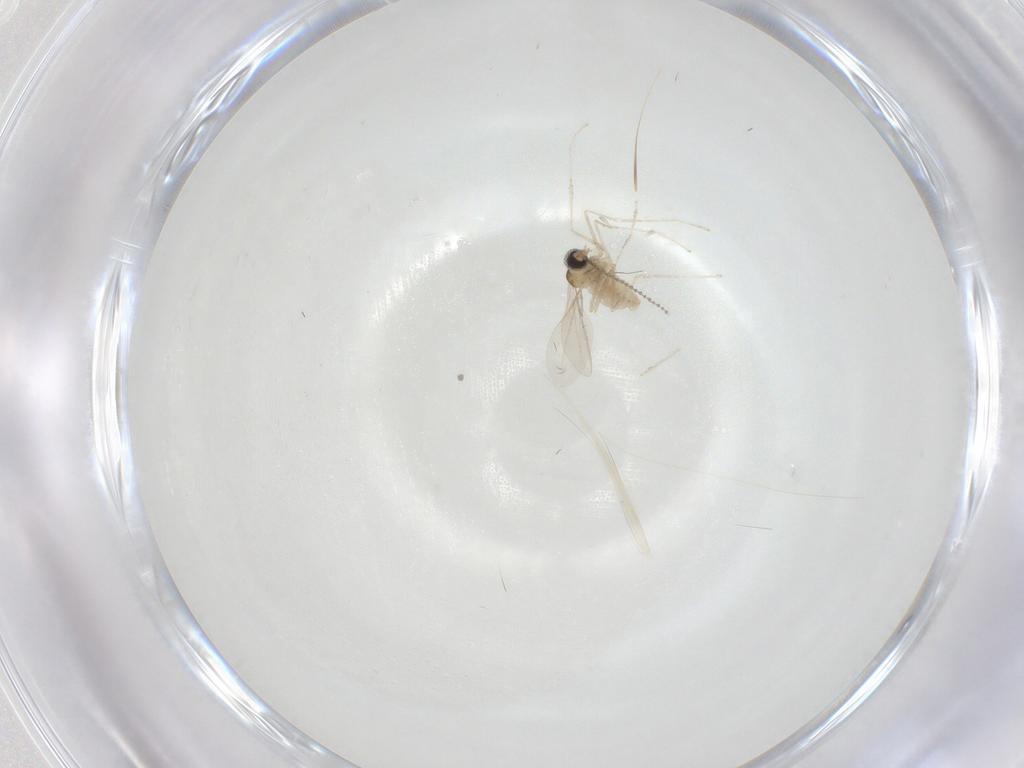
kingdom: Animalia
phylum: Arthropoda
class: Insecta
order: Diptera
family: Cecidomyiidae
